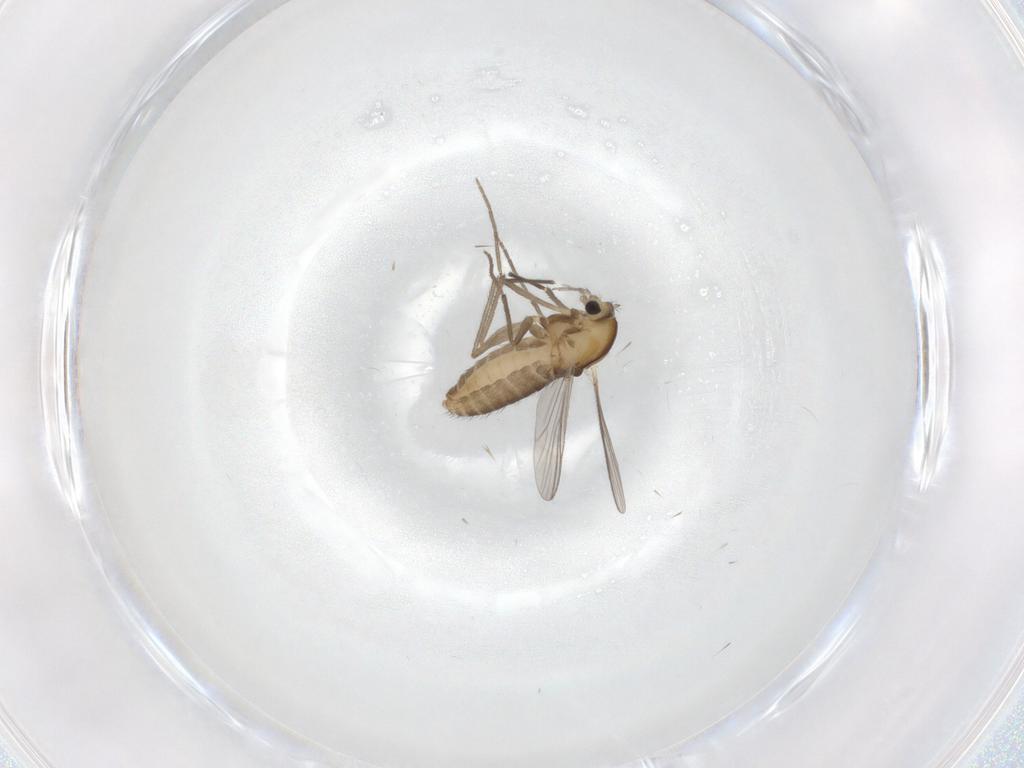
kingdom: Animalia
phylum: Arthropoda
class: Insecta
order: Diptera
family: Chironomidae
